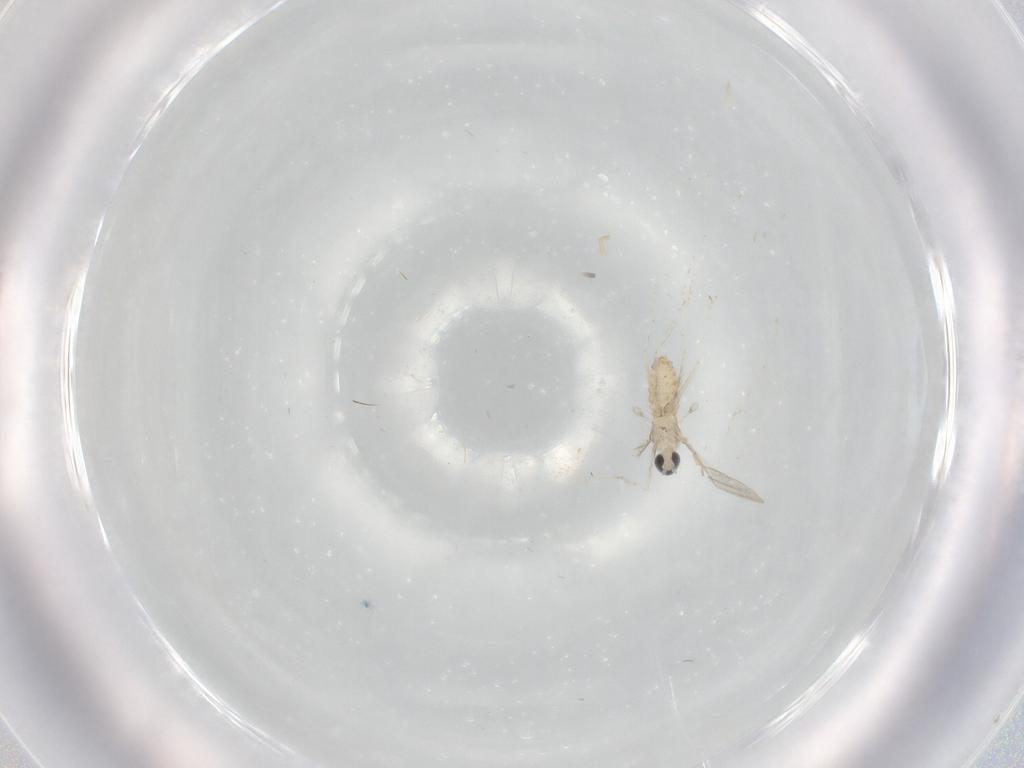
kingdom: Animalia
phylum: Arthropoda
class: Insecta
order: Diptera
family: Cecidomyiidae
